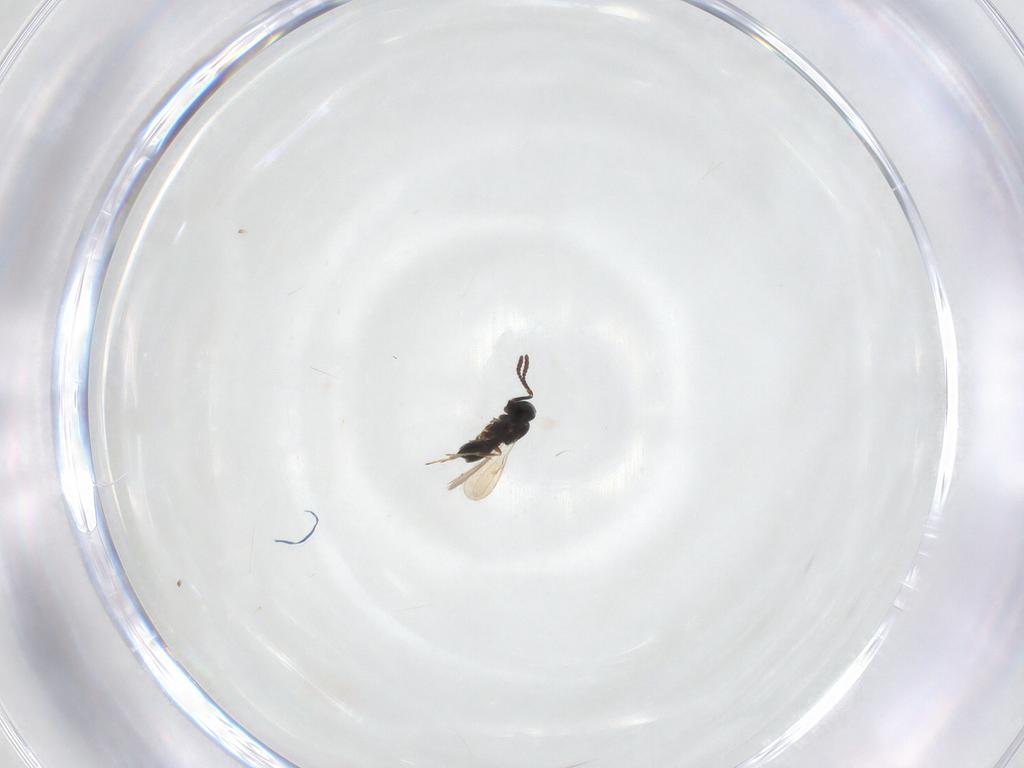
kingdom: Animalia
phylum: Arthropoda
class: Insecta
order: Hymenoptera
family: Scelionidae
